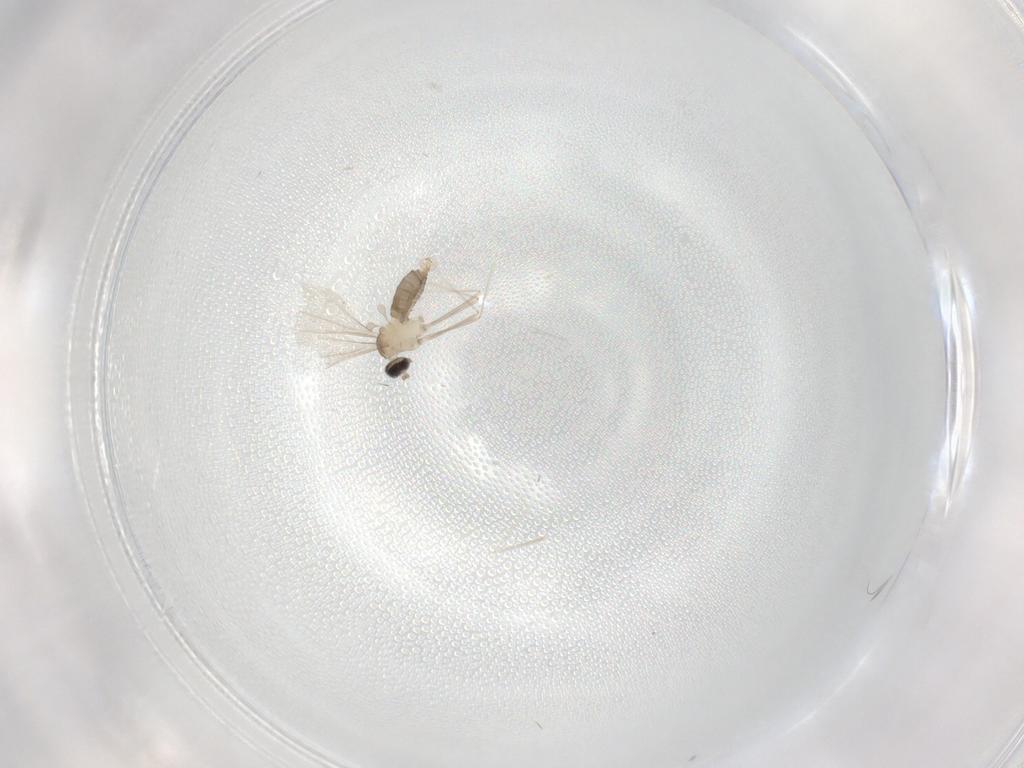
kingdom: Animalia
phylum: Arthropoda
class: Insecta
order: Diptera
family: Cecidomyiidae
